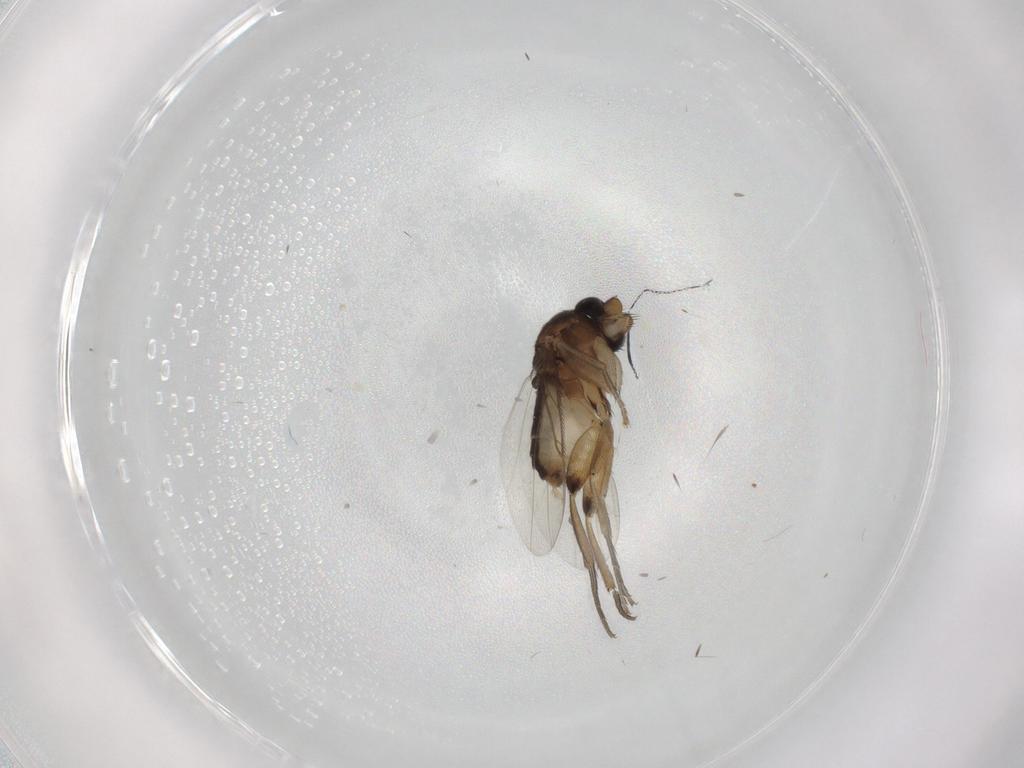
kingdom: Animalia
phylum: Arthropoda
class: Insecta
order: Diptera
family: Phoridae
